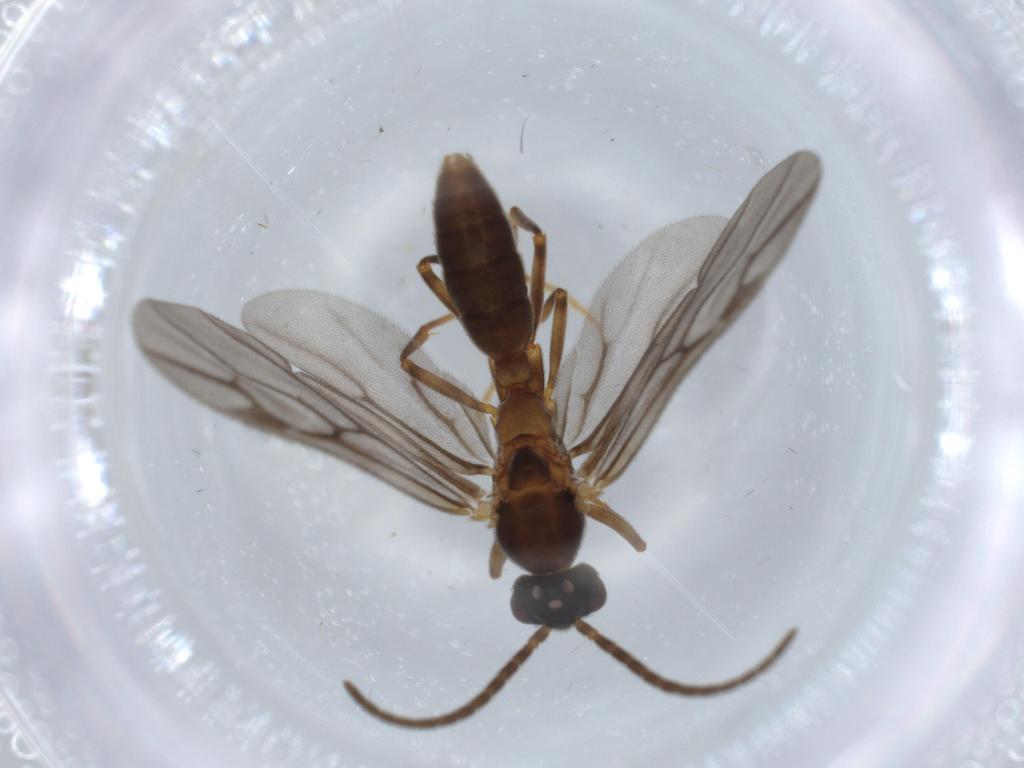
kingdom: Animalia
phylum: Arthropoda
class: Insecta
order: Hymenoptera
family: Formicidae
